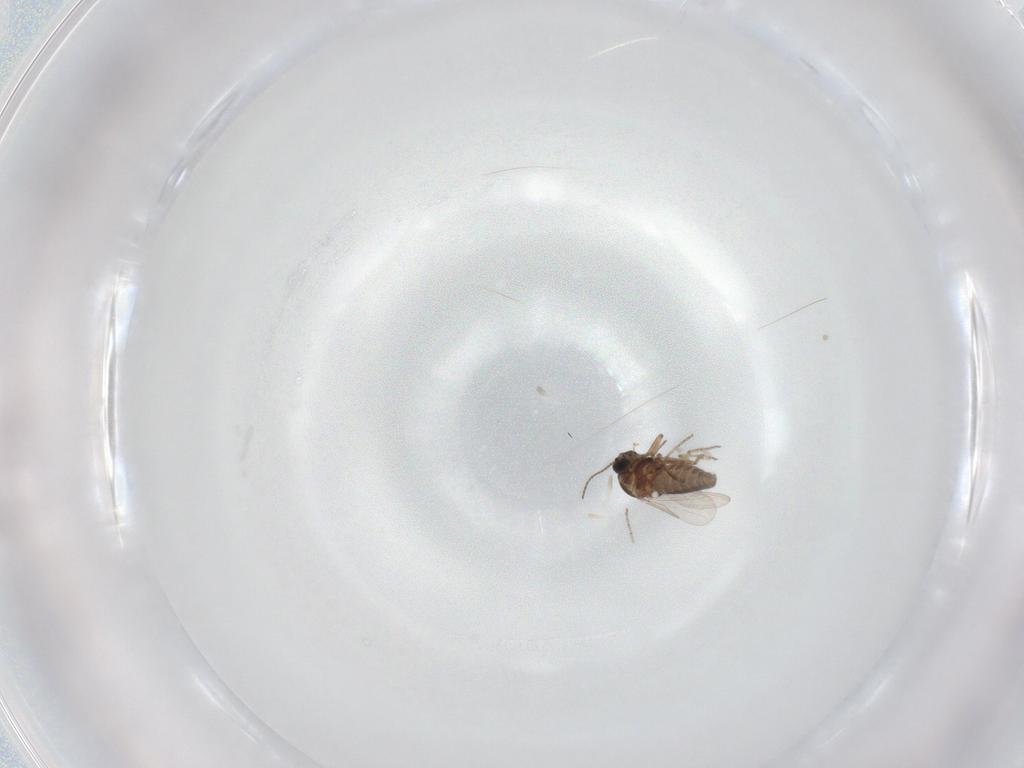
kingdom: Animalia
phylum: Arthropoda
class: Insecta
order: Diptera
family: Ceratopogonidae
